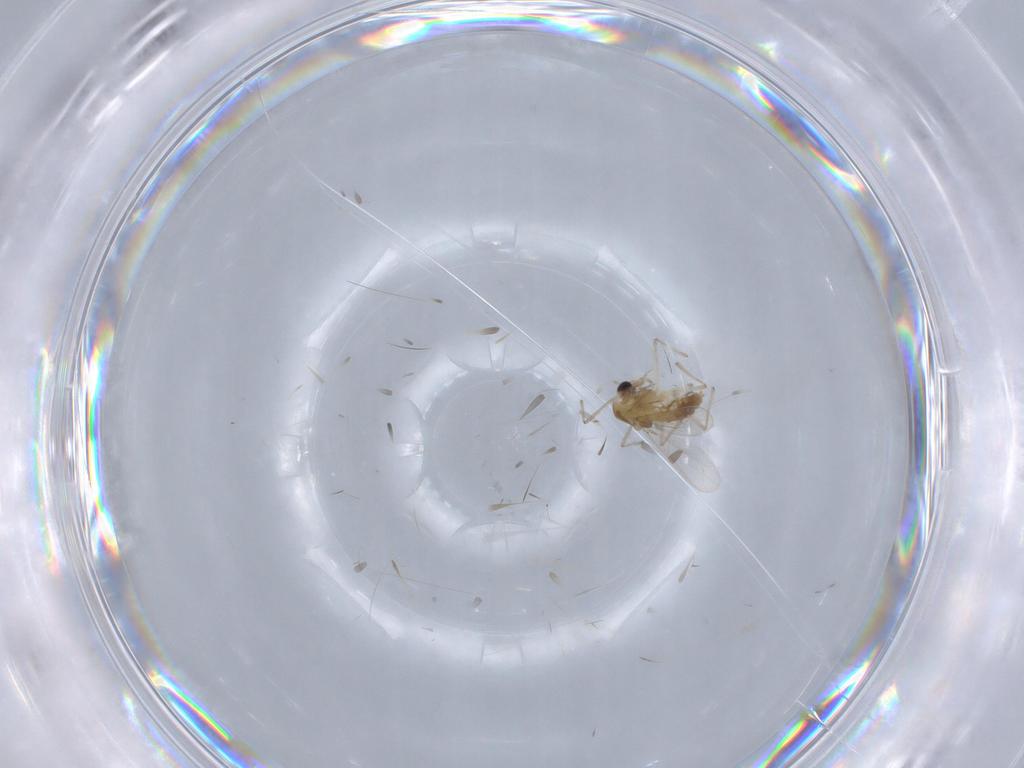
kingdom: Animalia
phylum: Arthropoda
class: Insecta
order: Diptera
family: Chironomidae
